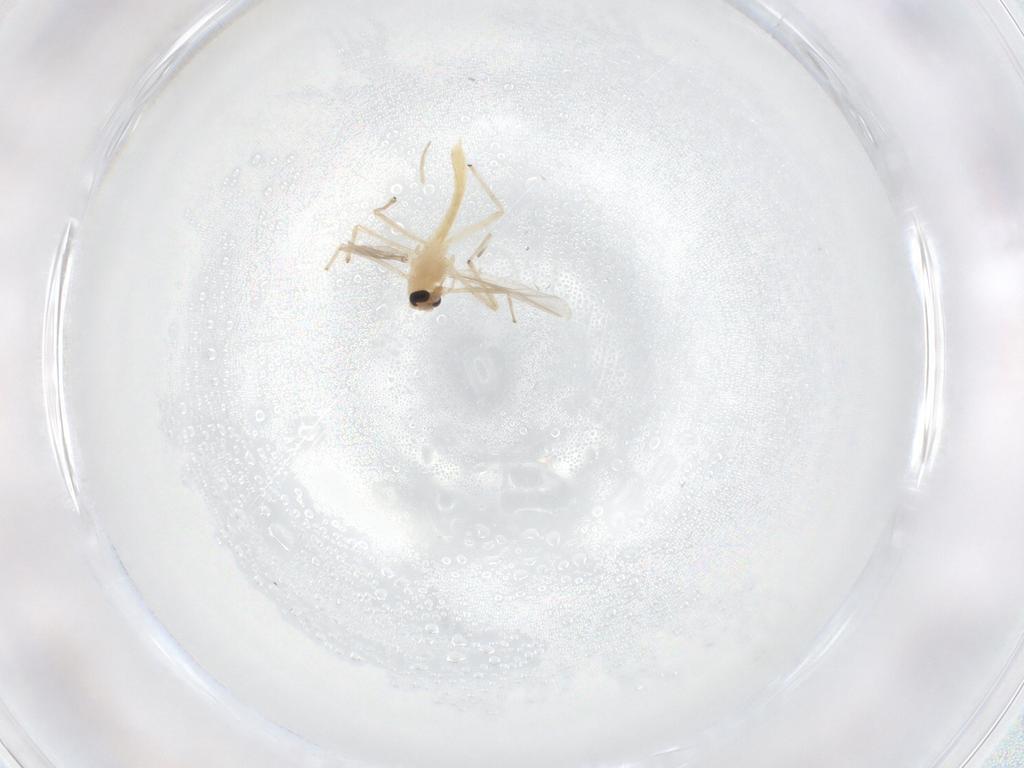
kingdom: Animalia
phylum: Arthropoda
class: Insecta
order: Diptera
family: Chironomidae
